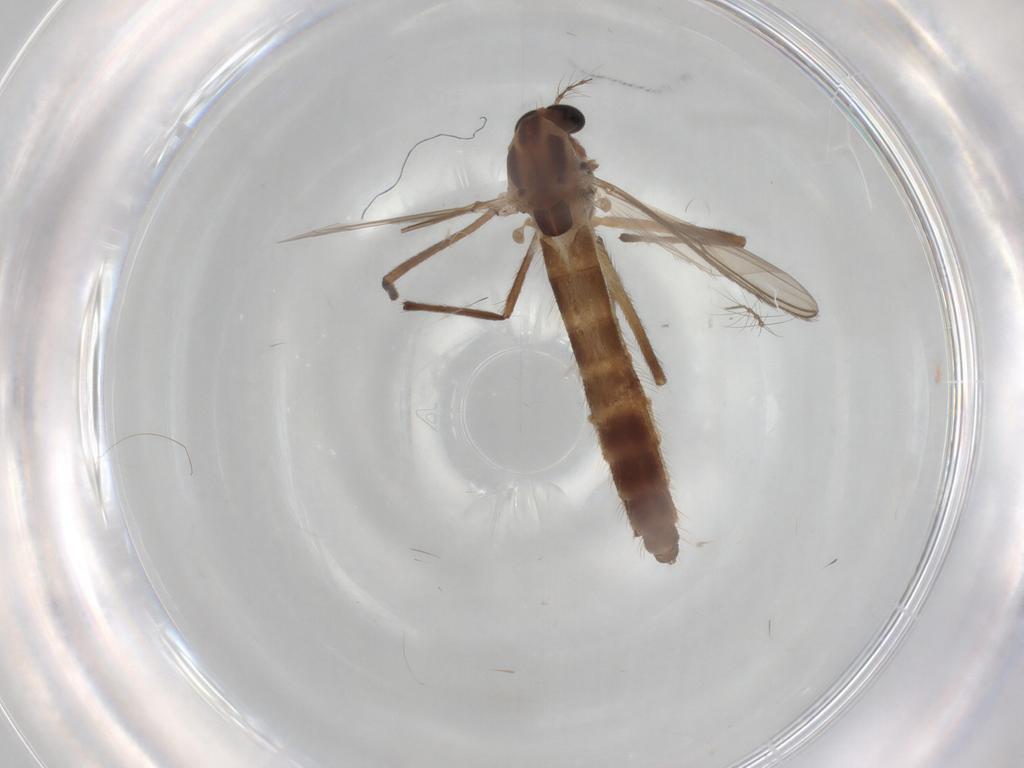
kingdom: Animalia
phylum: Arthropoda
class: Insecta
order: Diptera
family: Chironomidae
